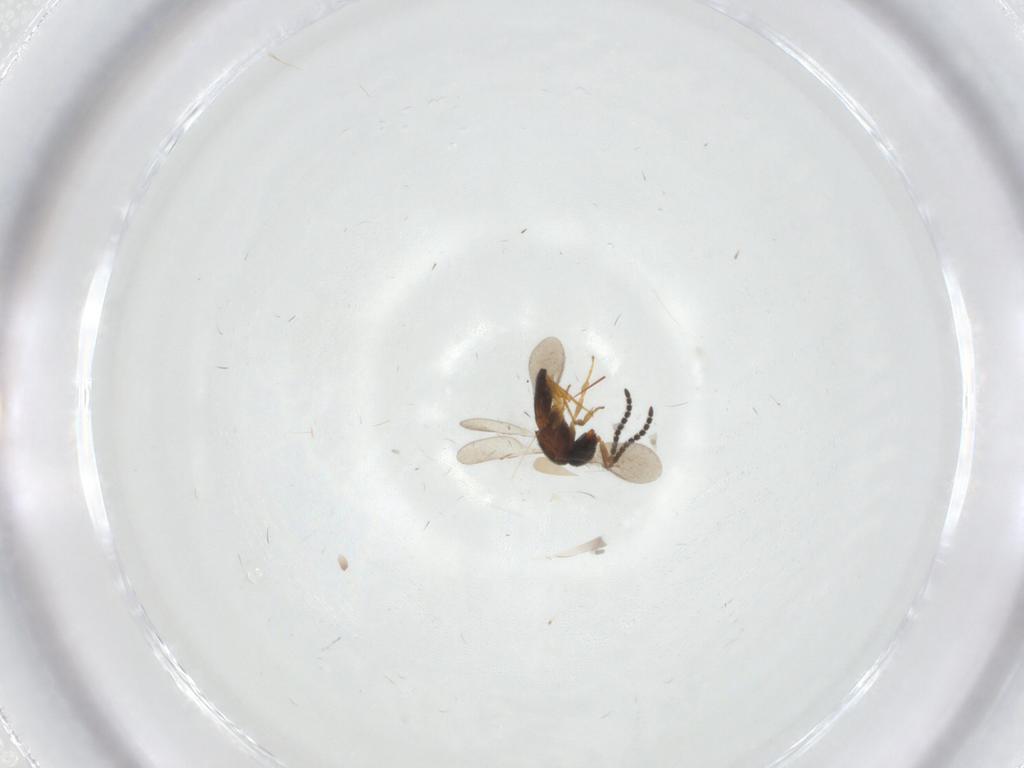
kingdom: Animalia
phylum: Arthropoda
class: Insecta
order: Hymenoptera
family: Scelionidae
